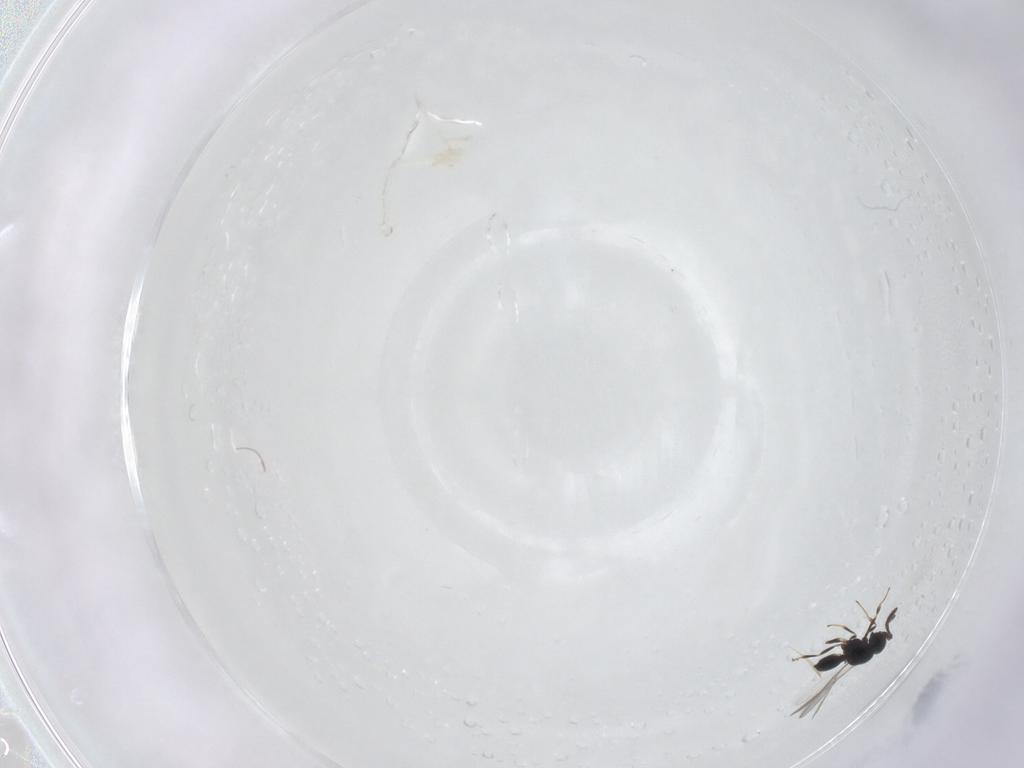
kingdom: Animalia
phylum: Arthropoda
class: Insecta
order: Hymenoptera
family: Scelionidae
